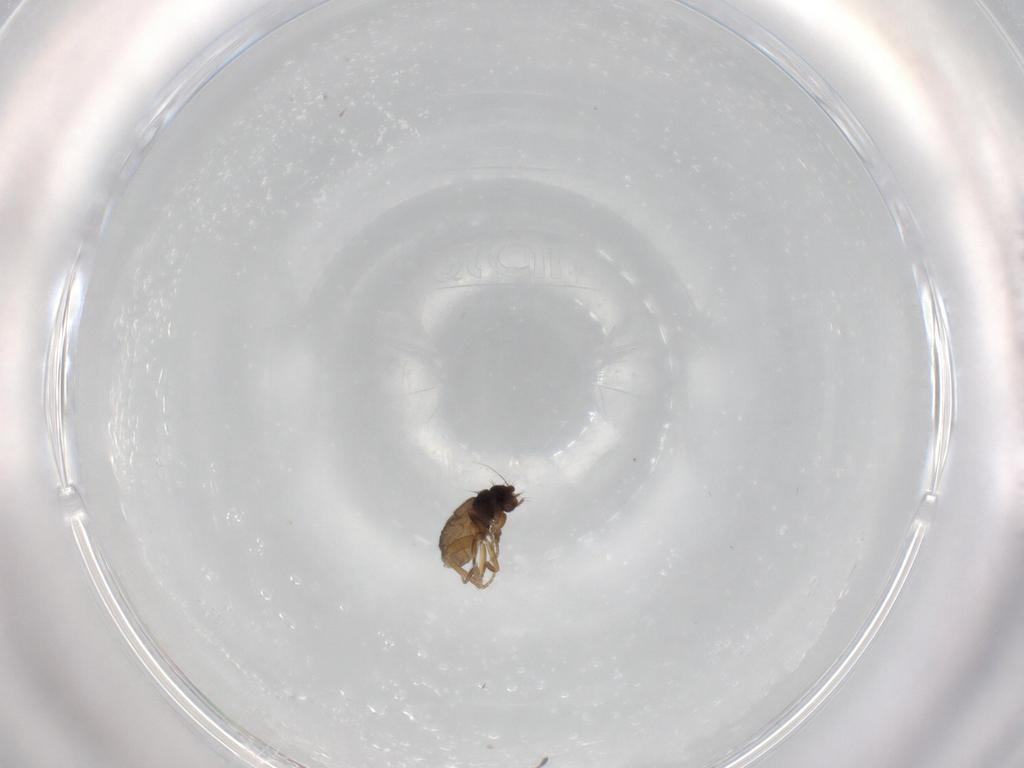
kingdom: Animalia
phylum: Arthropoda
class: Insecta
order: Diptera
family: Phoridae
